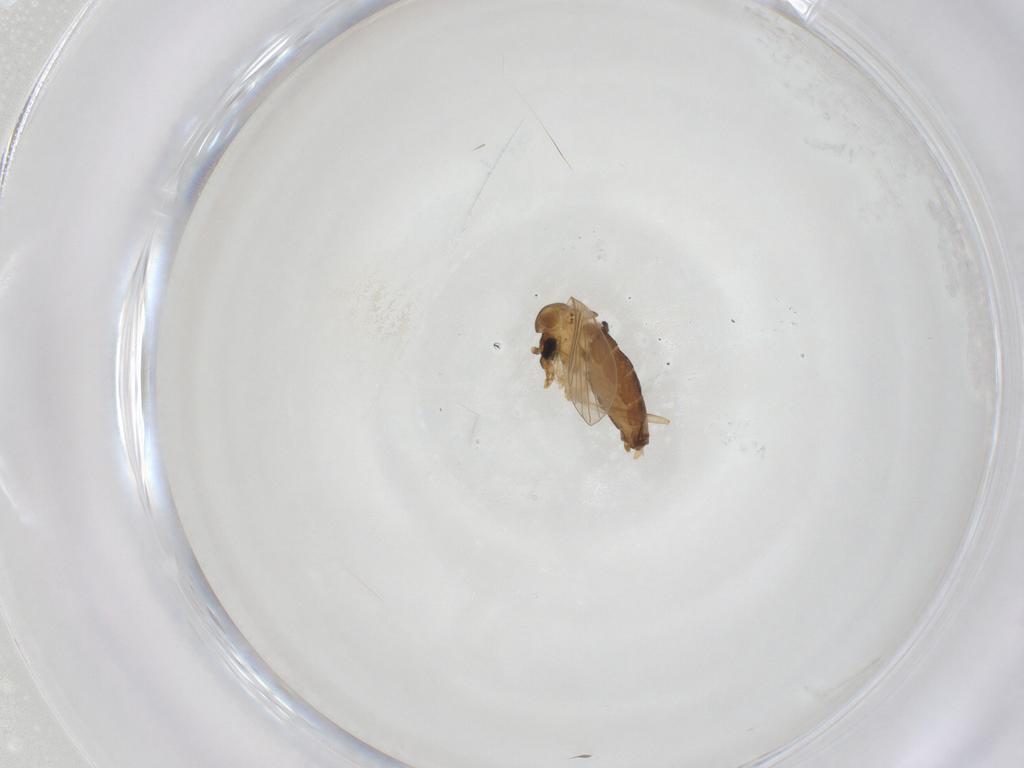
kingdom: Animalia
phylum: Arthropoda
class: Insecta
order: Diptera
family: Psychodidae
